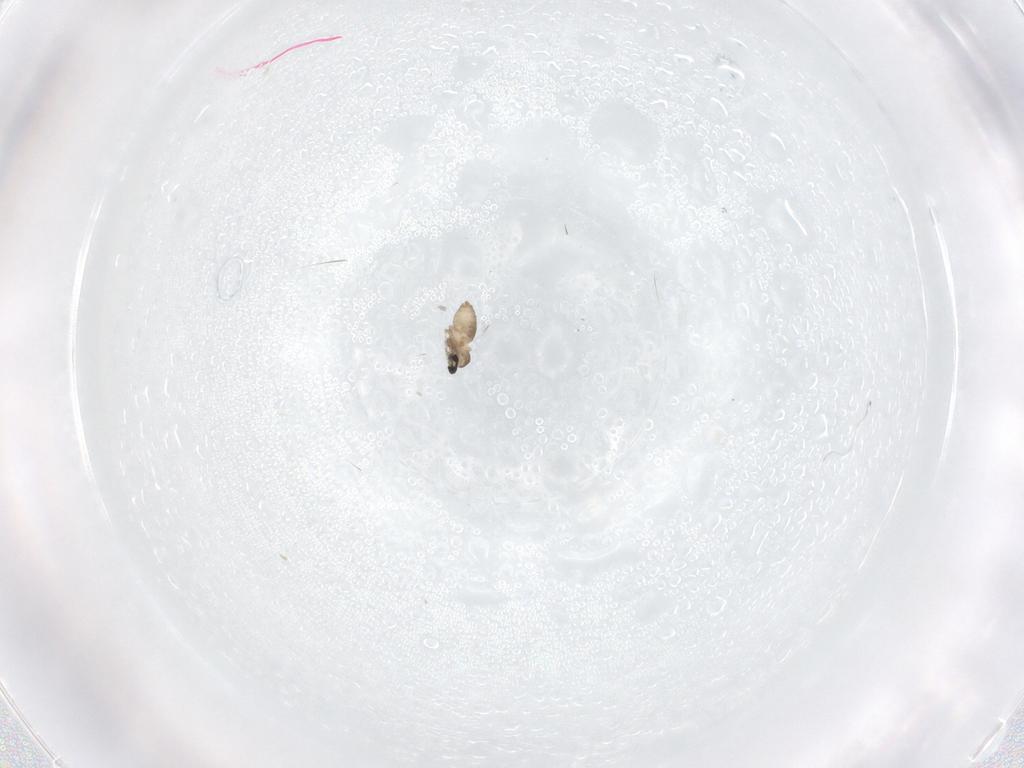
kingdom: Animalia
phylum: Arthropoda
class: Insecta
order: Diptera
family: Cecidomyiidae
